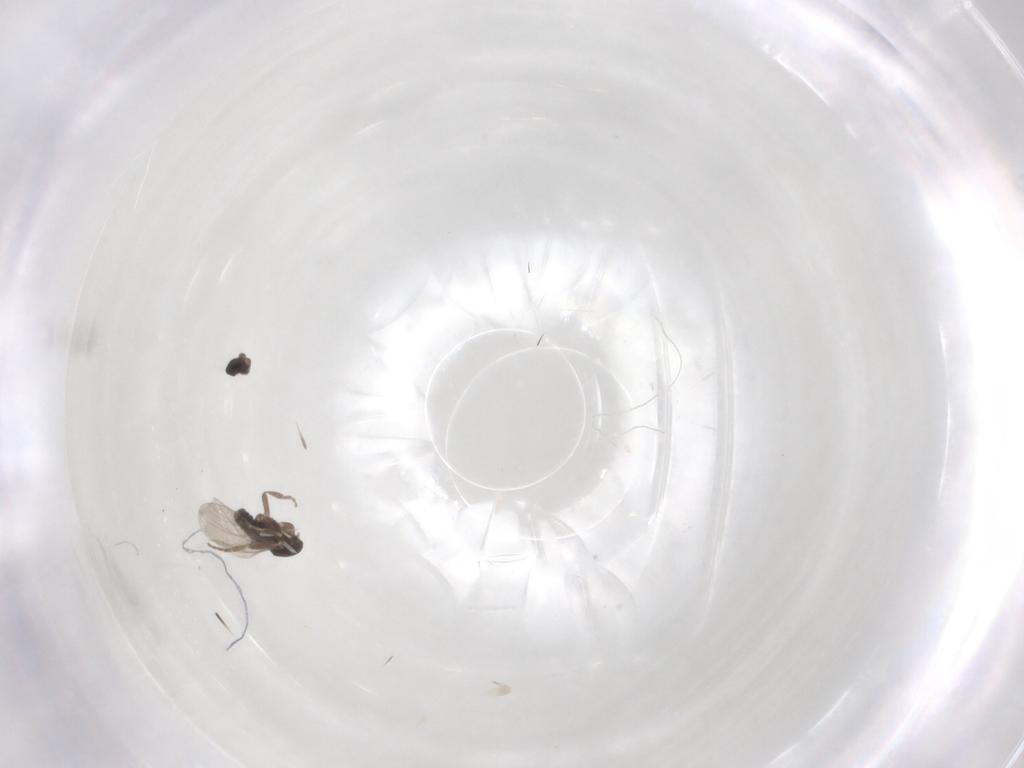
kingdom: Animalia
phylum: Arthropoda
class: Insecta
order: Diptera
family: Phoridae
